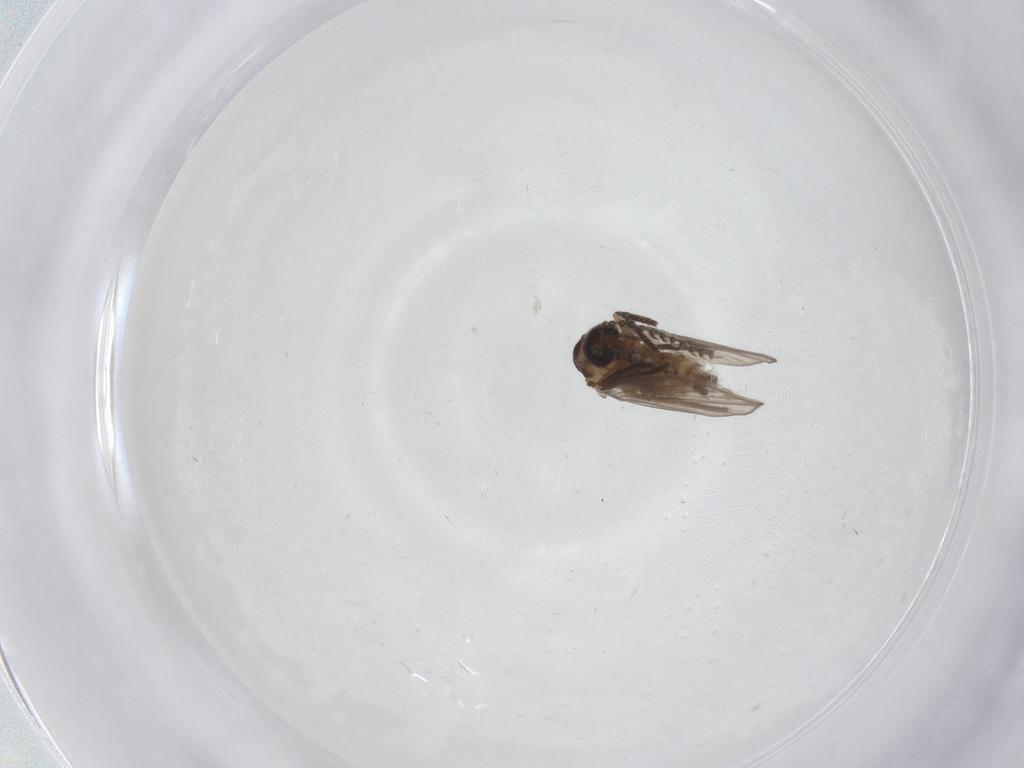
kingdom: Animalia
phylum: Arthropoda
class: Insecta
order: Diptera
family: Psychodidae
